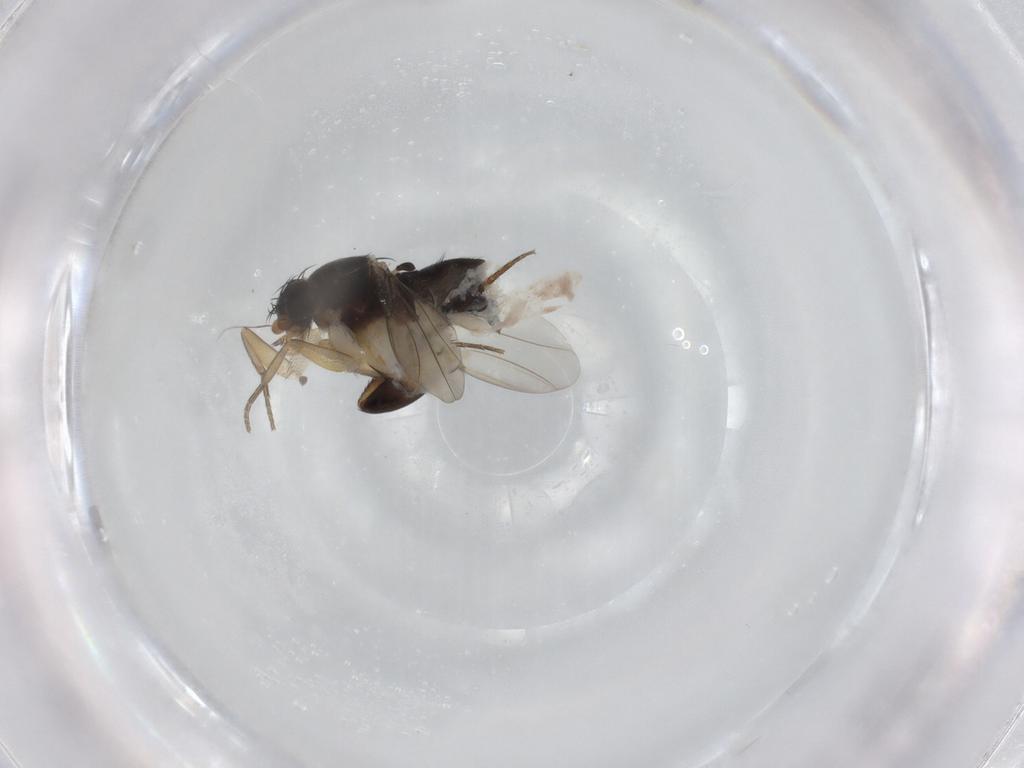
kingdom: Animalia
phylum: Arthropoda
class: Insecta
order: Diptera
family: Phoridae
